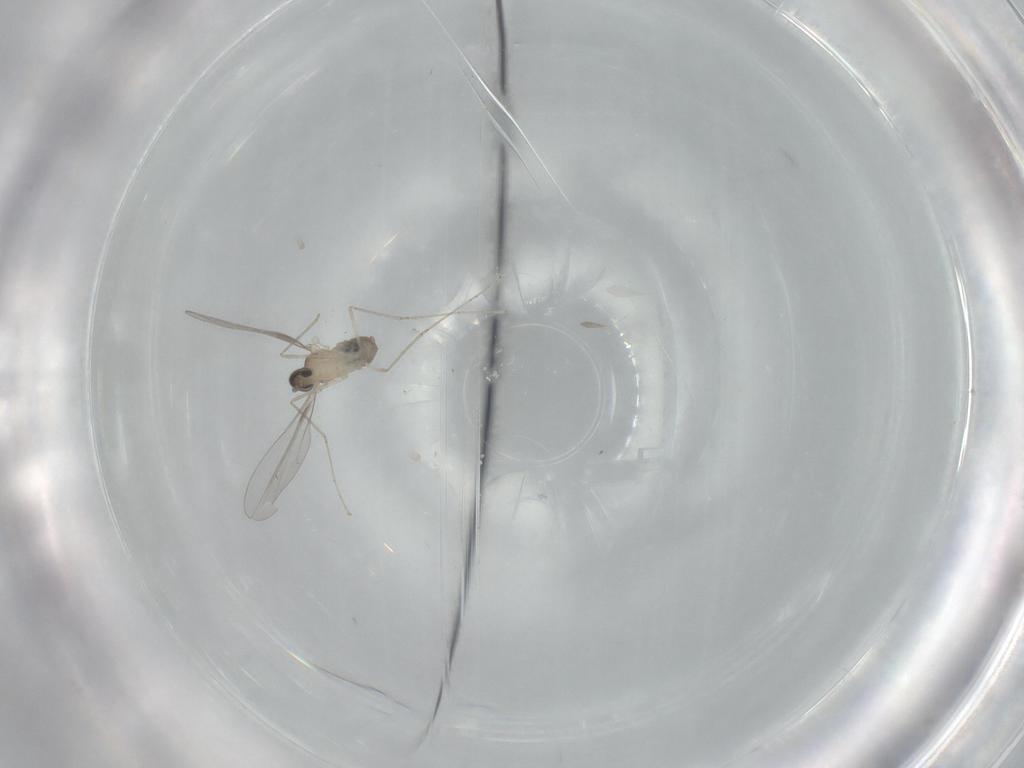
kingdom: Animalia
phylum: Arthropoda
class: Insecta
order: Diptera
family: Cecidomyiidae
